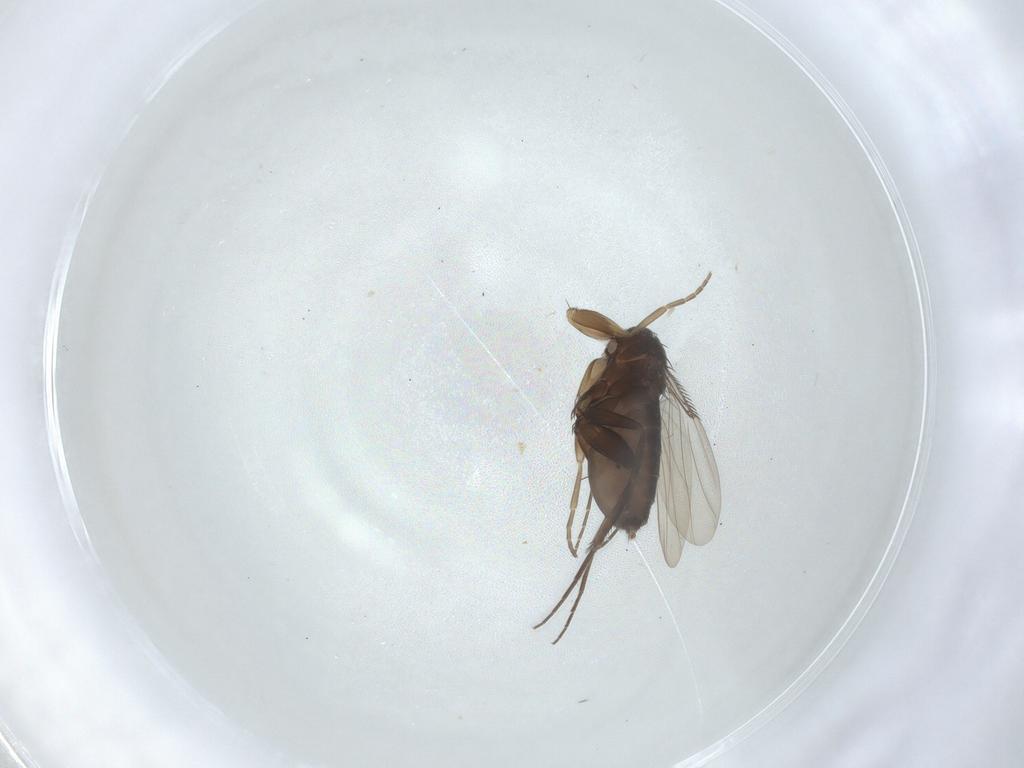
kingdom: Animalia
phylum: Arthropoda
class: Insecta
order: Diptera
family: Phoridae
